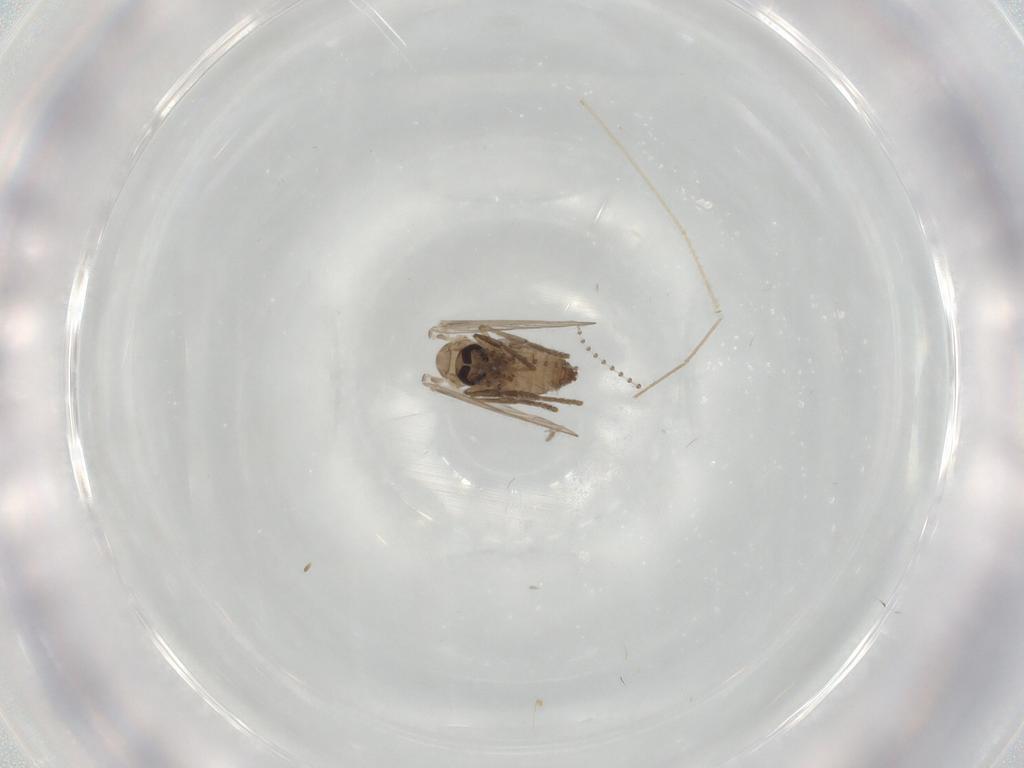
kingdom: Animalia
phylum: Arthropoda
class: Insecta
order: Diptera
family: Psychodidae
